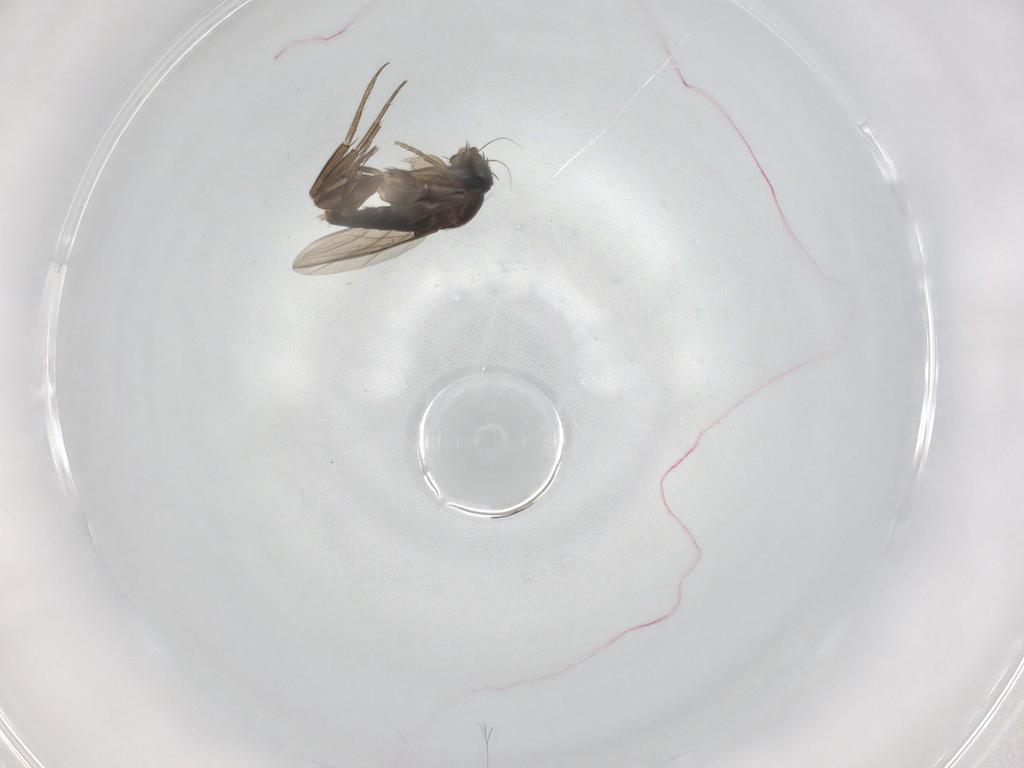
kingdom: Animalia
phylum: Arthropoda
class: Insecta
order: Diptera
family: Phoridae
